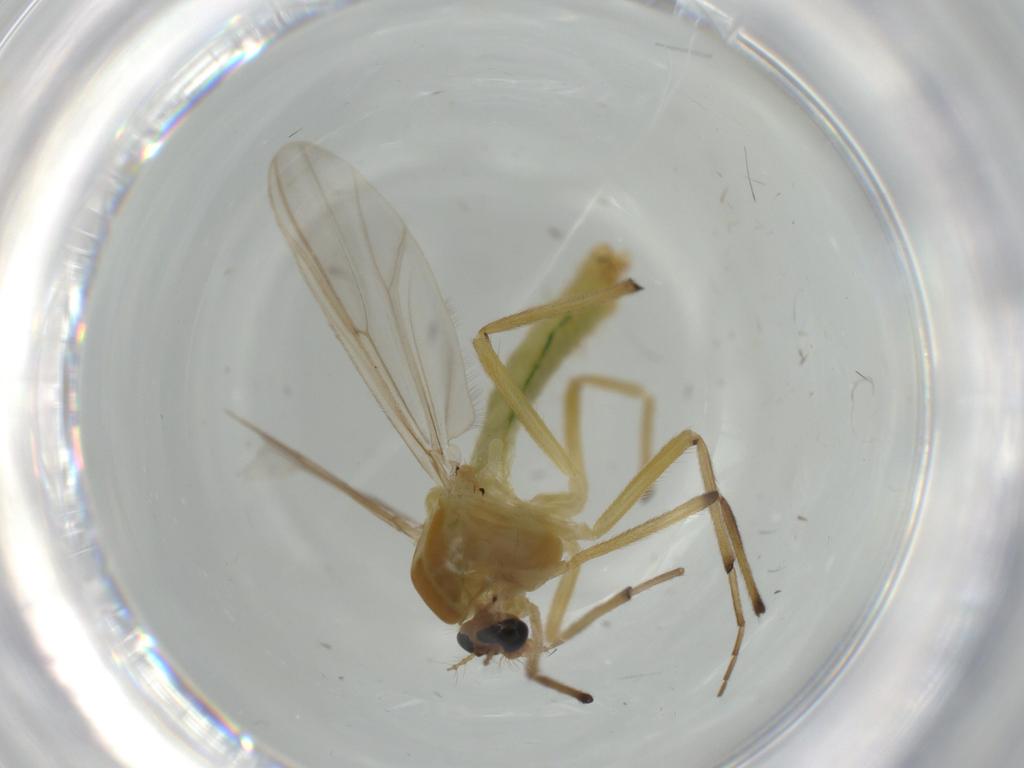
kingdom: Animalia
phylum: Arthropoda
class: Insecta
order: Diptera
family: Chironomidae
